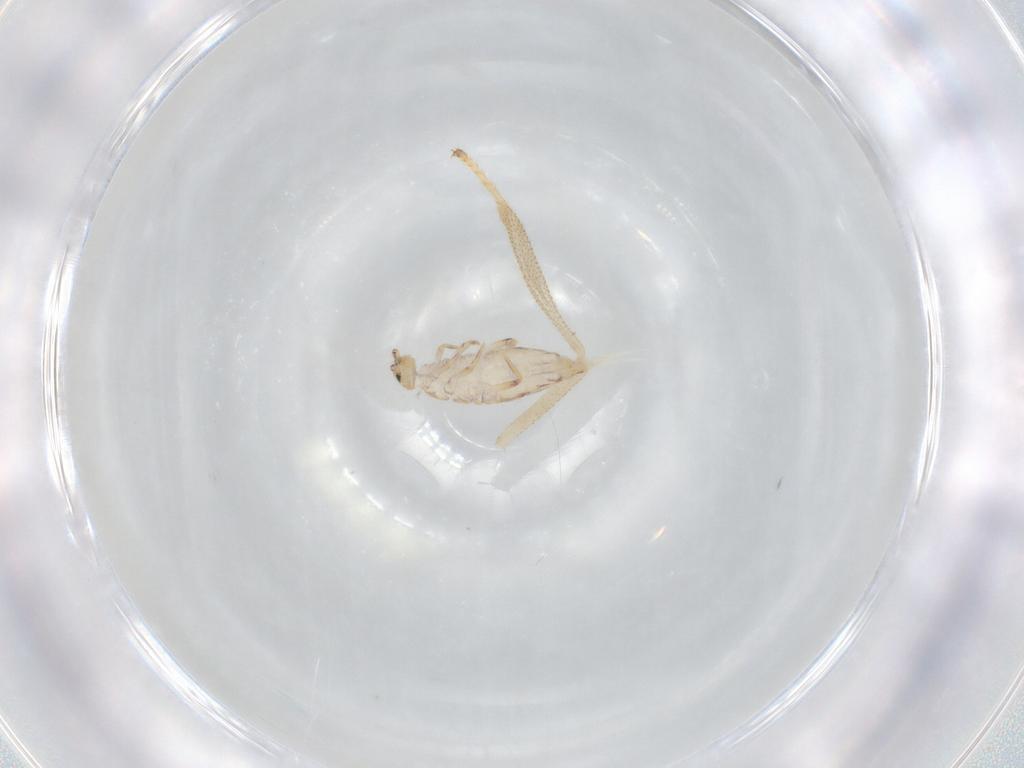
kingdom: Animalia
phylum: Arthropoda
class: Collembola
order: Entomobryomorpha
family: Entomobryidae
